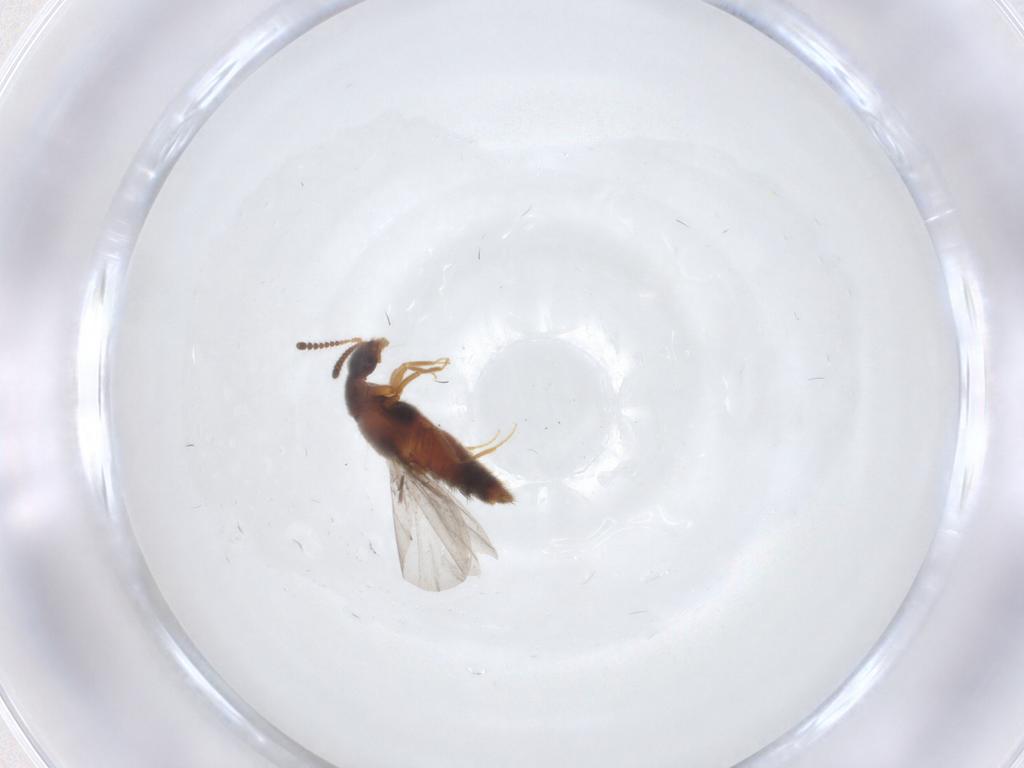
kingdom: Animalia
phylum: Arthropoda
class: Insecta
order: Coleoptera
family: Staphylinidae
